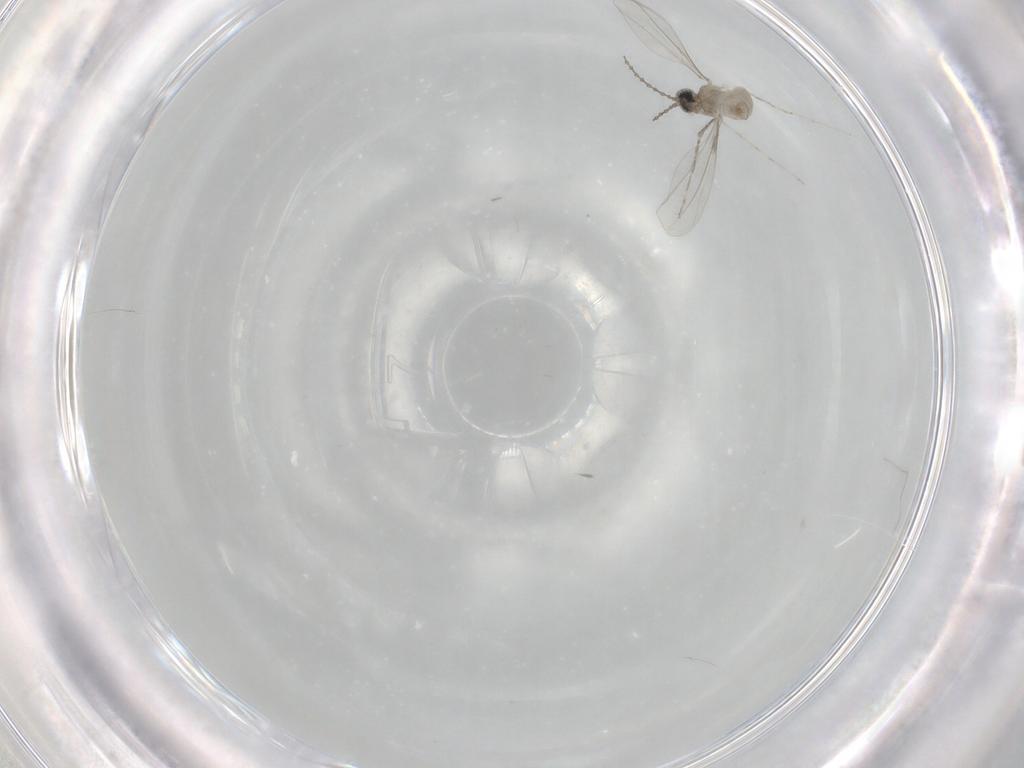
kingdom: Animalia
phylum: Arthropoda
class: Insecta
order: Diptera
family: Cecidomyiidae
